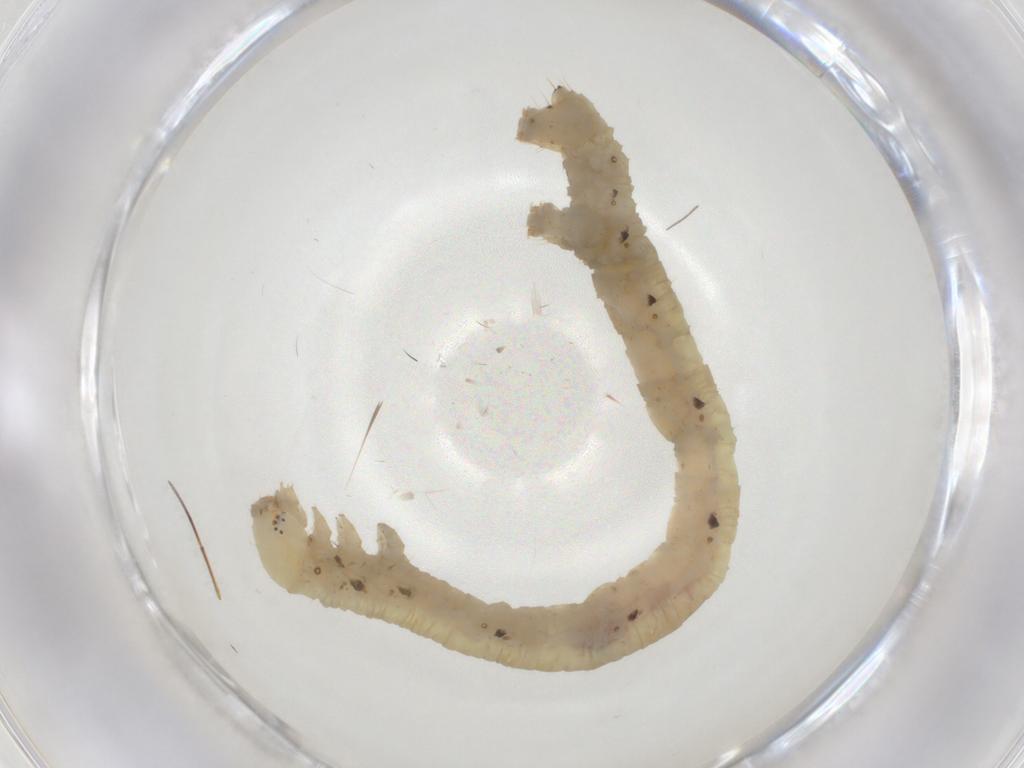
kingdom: Animalia
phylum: Arthropoda
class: Insecta
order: Lepidoptera
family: Geometridae
